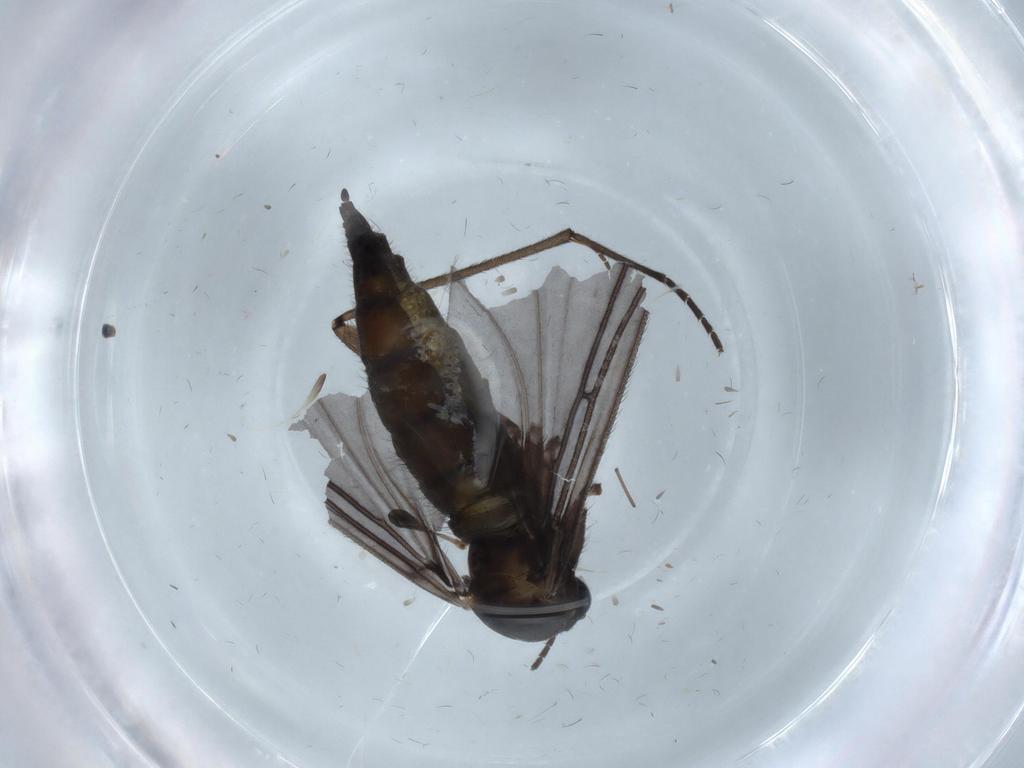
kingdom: Animalia
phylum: Arthropoda
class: Insecta
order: Diptera
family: Sciaridae
